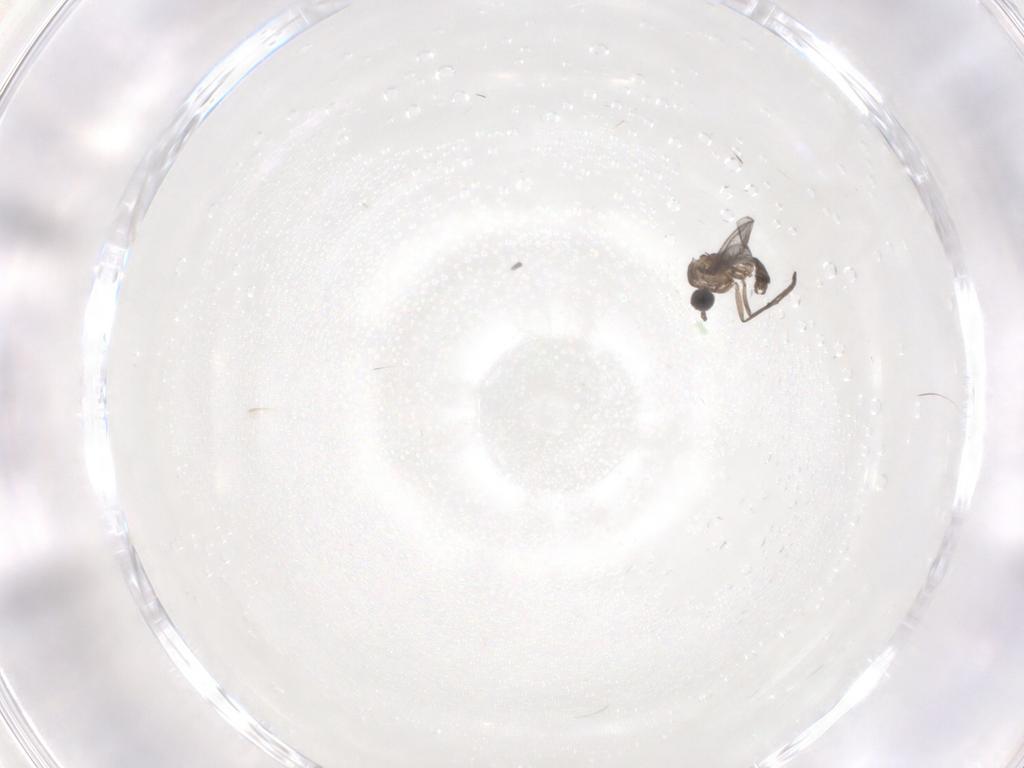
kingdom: Animalia
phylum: Arthropoda
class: Insecta
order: Diptera
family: Sciaridae
